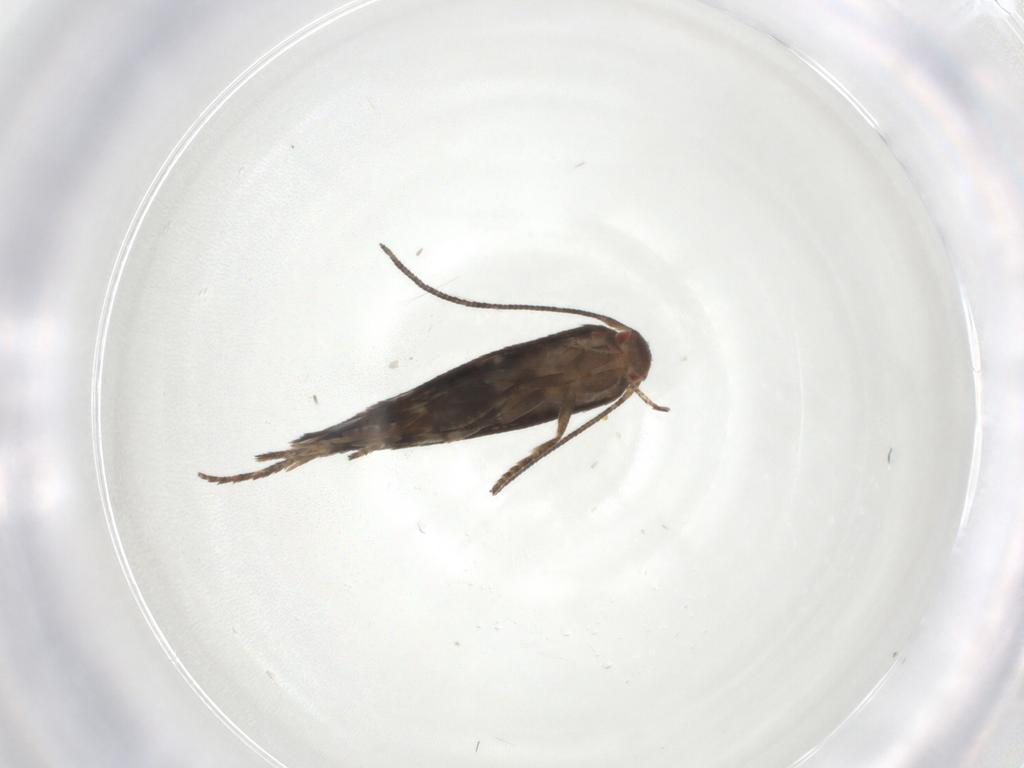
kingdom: Animalia
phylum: Arthropoda
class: Insecta
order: Lepidoptera
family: Momphidae
